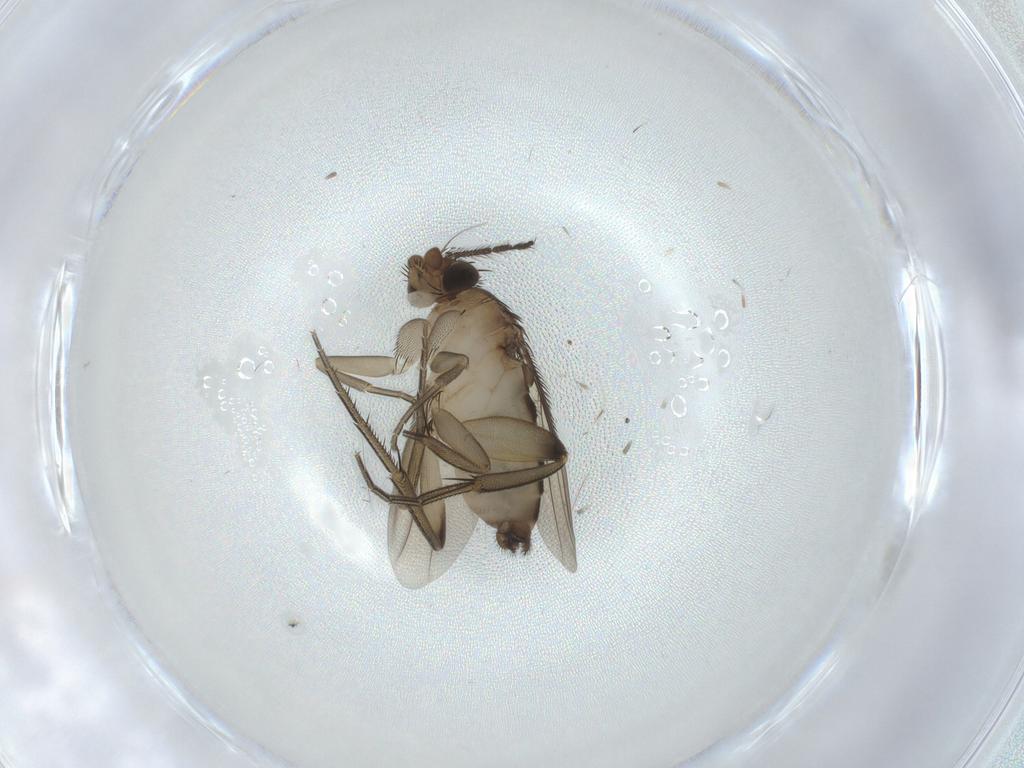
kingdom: Animalia
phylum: Arthropoda
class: Insecta
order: Diptera
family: Phoridae
